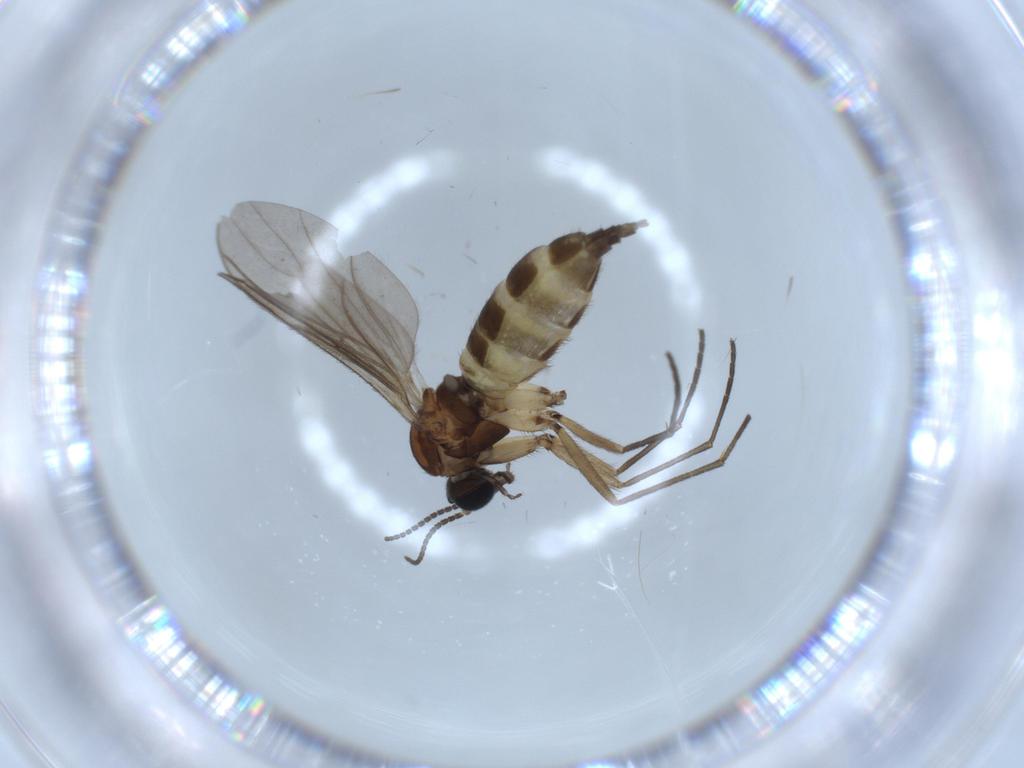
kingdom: Animalia
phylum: Arthropoda
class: Insecta
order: Diptera
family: Sciaridae
